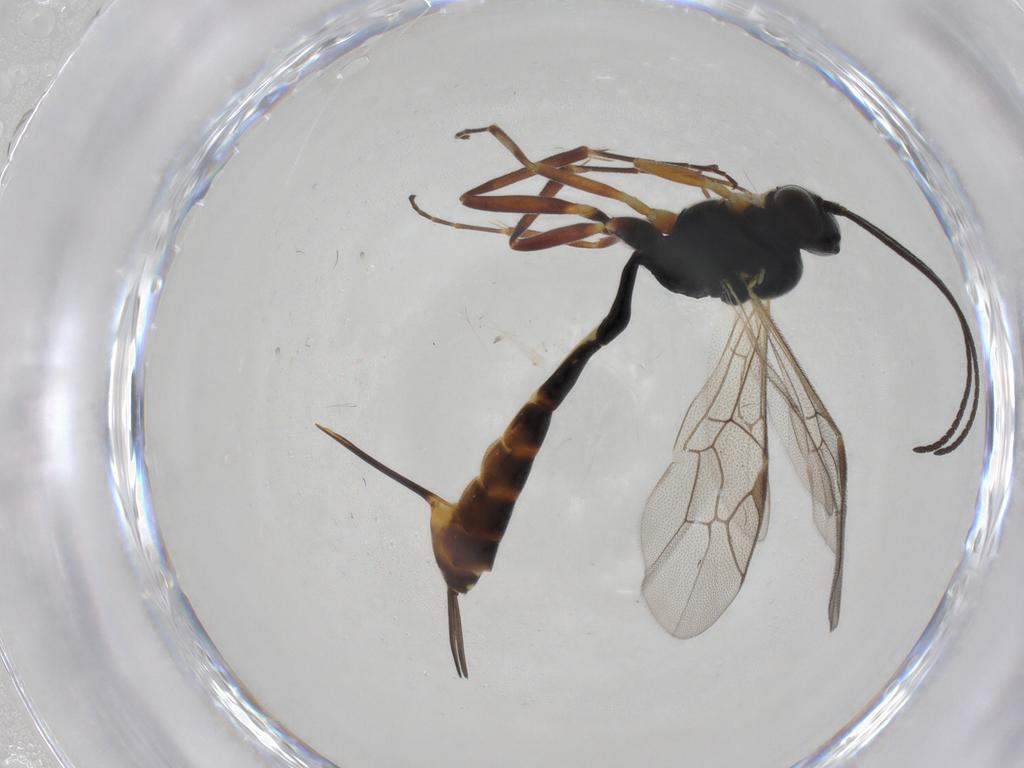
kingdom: Animalia
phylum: Arthropoda
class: Insecta
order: Hymenoptera
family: Ichneumonidae
